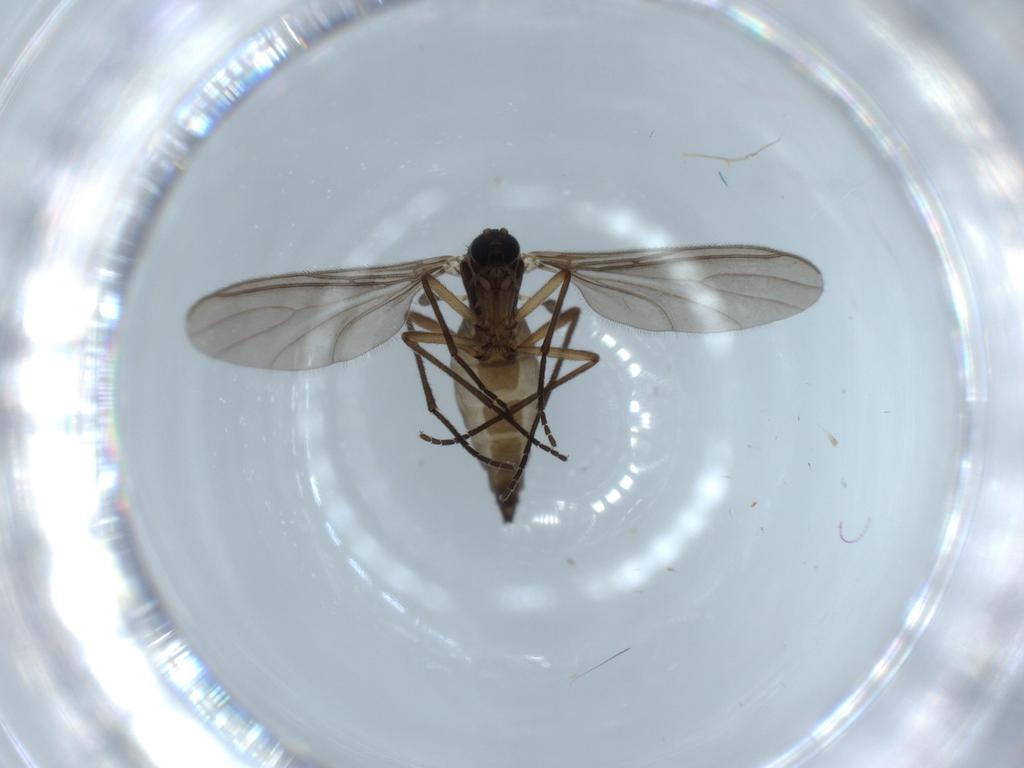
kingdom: Animalia
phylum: Arthropoda
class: Insecta
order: Diptera
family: Sciaridae
